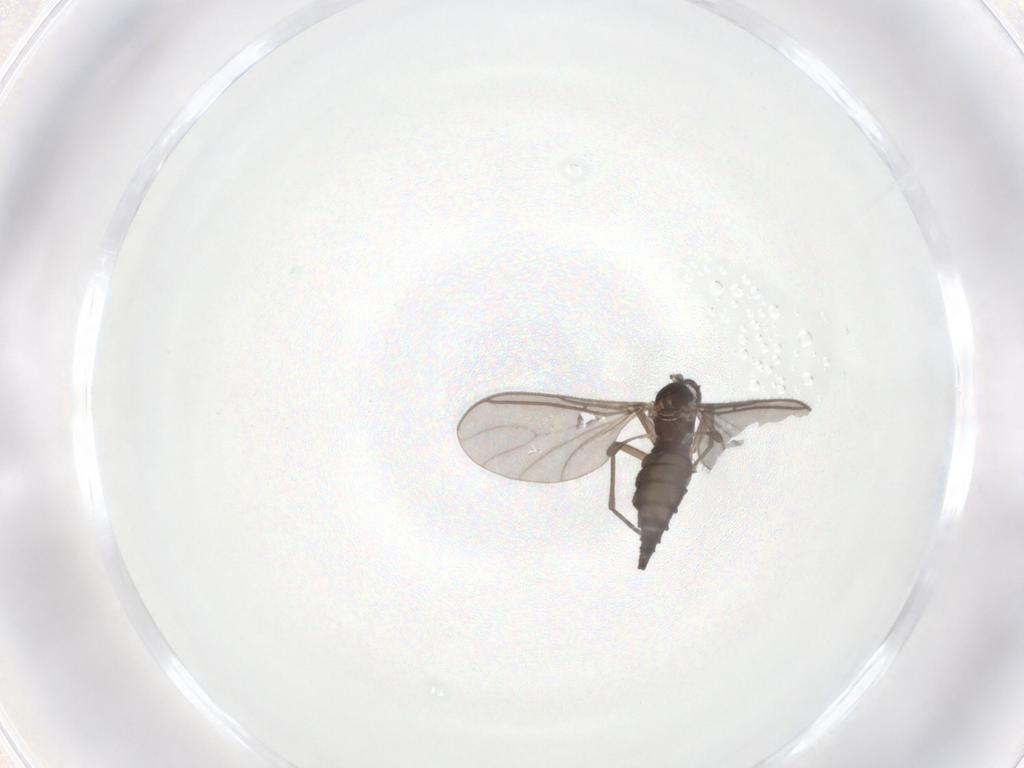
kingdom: Animalia
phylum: Arthropoda
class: Insecta
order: Diptera
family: Sciaridae
